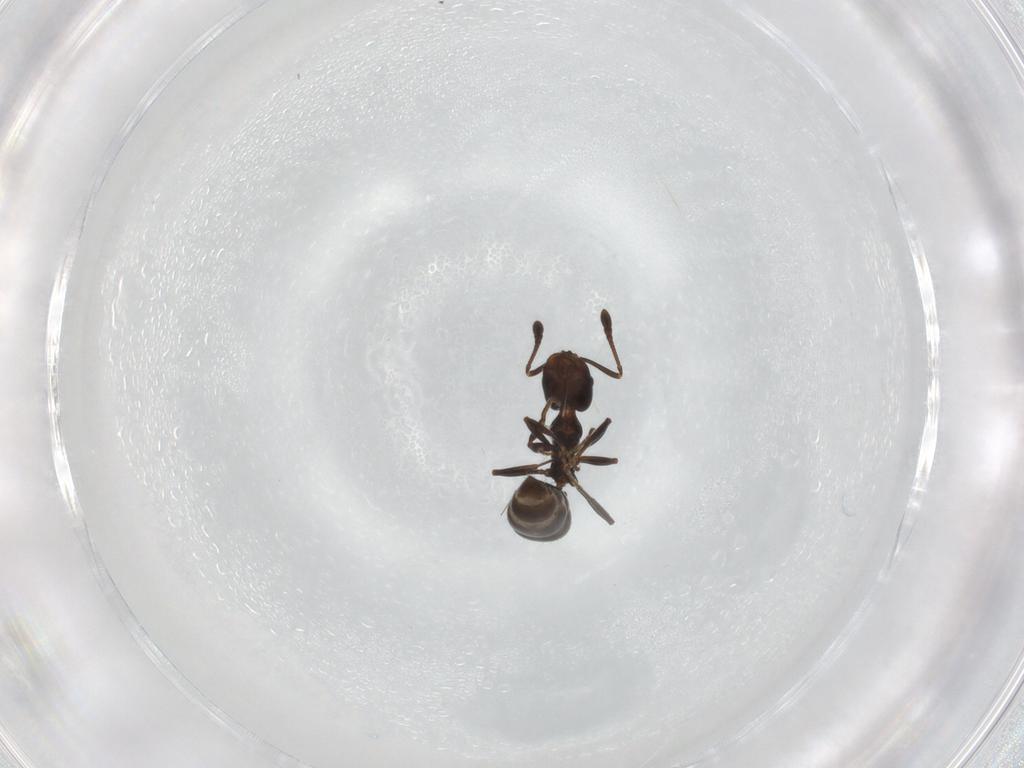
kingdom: Animalia
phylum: Arthropoda
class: Insecta
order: Hymenoptera
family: Formicidae
